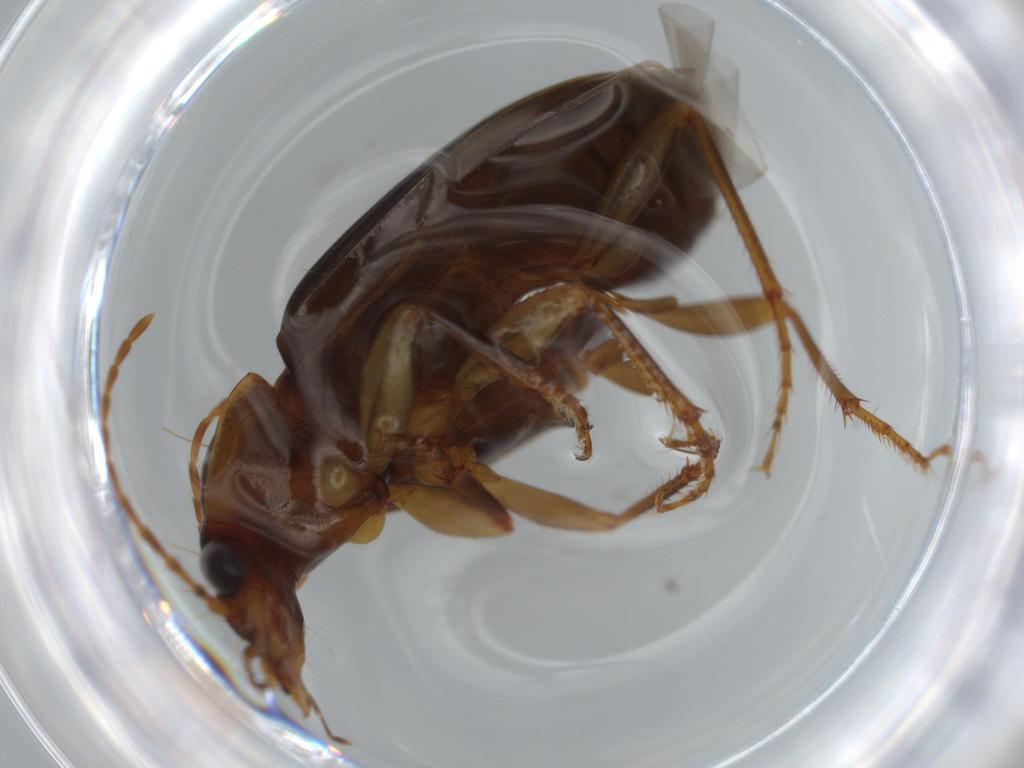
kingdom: Animalia
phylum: Arthropoda
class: Insecta
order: Coleoptera
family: Carabidae
